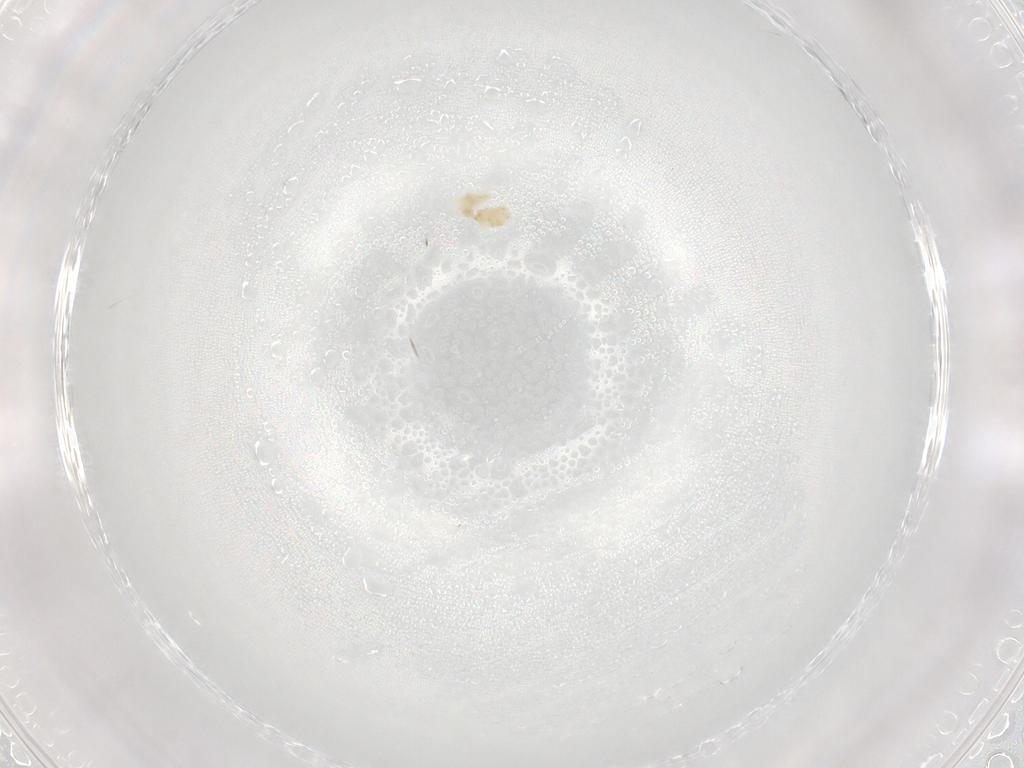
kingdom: Animalia
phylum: Arthropoda
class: Arachnida
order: Trombidiformes
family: Eupodidae
